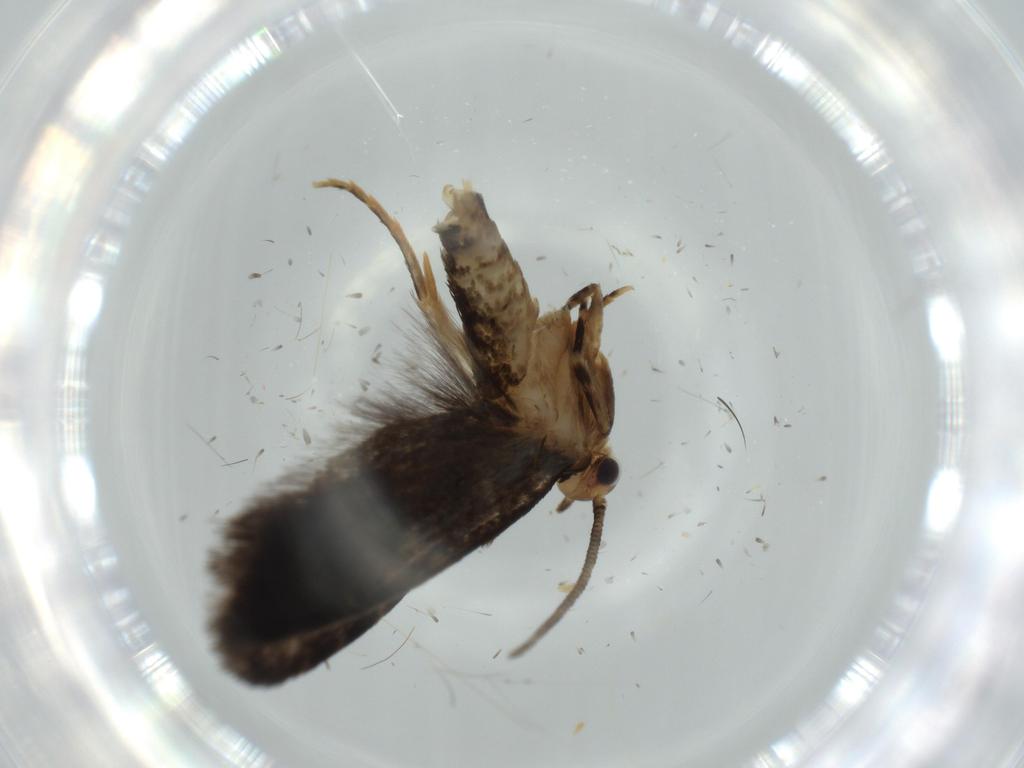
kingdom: Animalia
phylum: Arthropoda
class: Insecta
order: Lepidoptera
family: Tineidae
